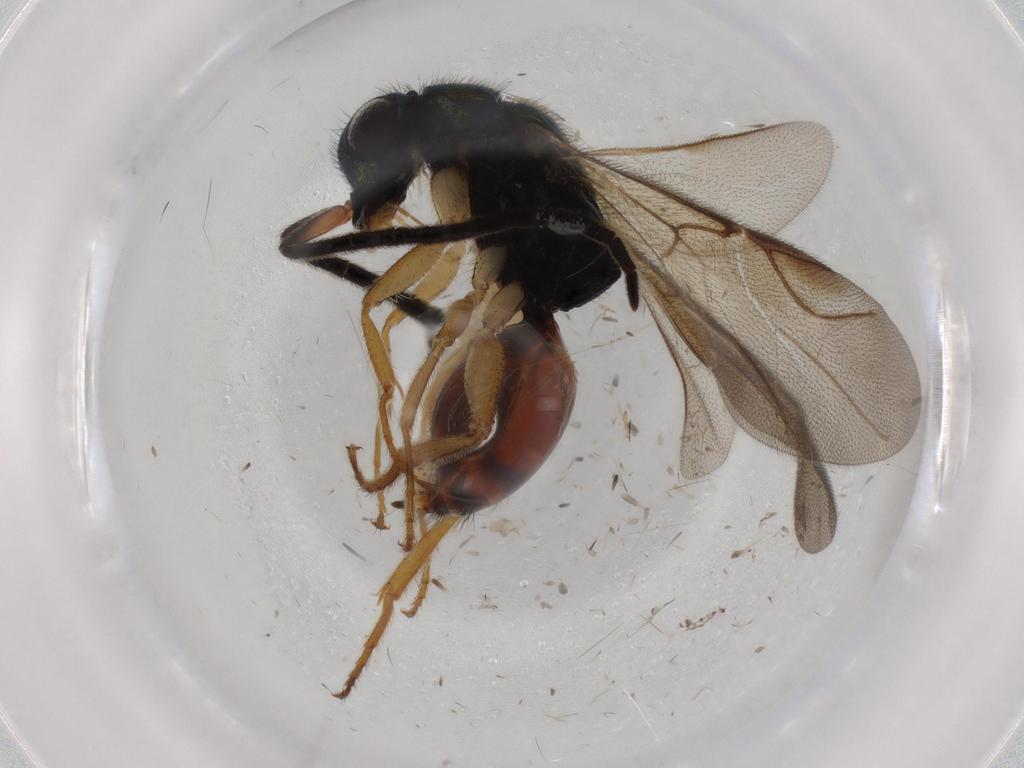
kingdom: Animalia
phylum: Arthropoda
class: Insecta
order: Hymenoptera
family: Chrysididae
